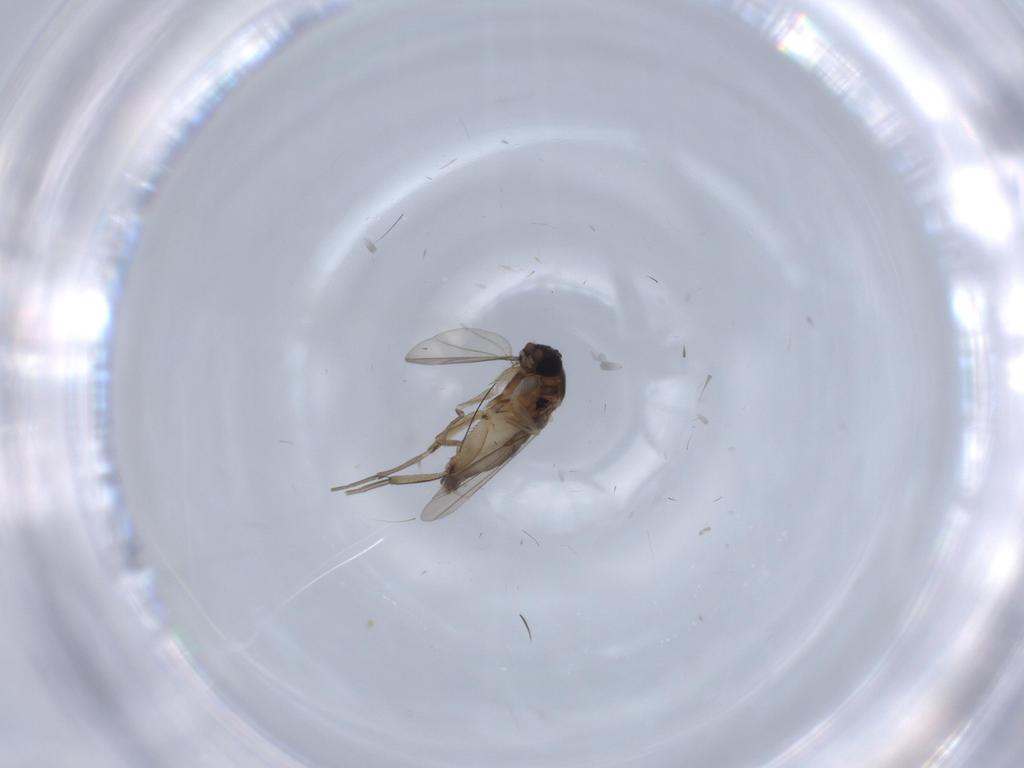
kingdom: Animalia
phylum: Arthropoda
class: Insecta
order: Diptera
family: Phoridae
